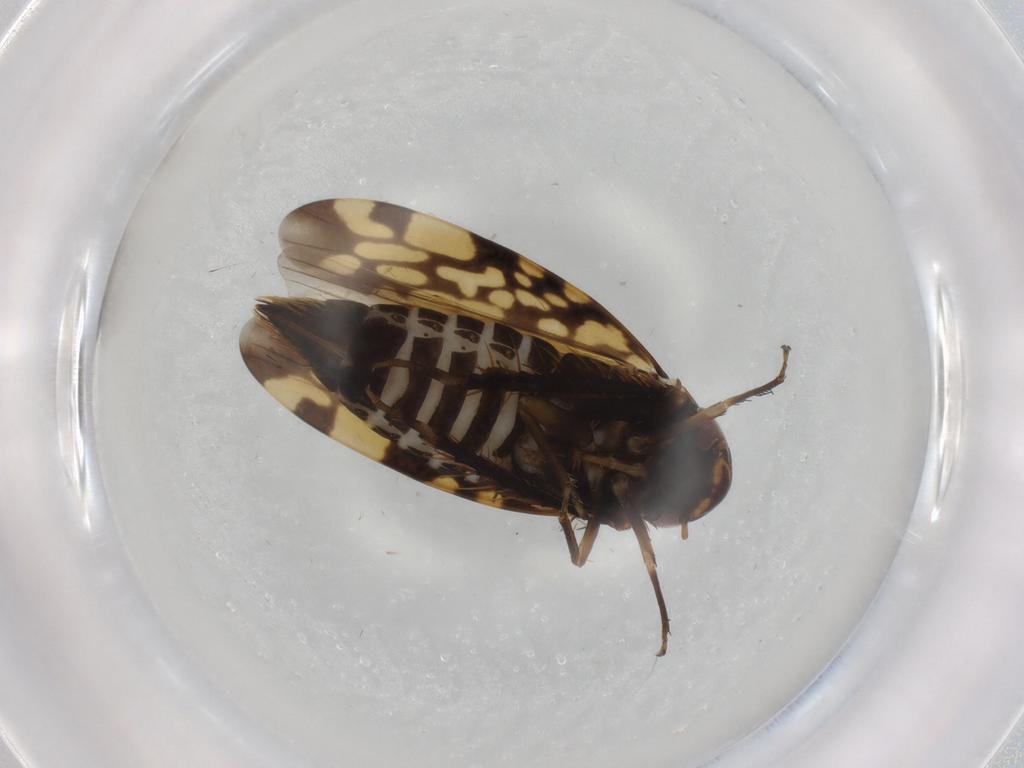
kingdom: Animalia
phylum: Arthropoda
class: Insecta
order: Hemiptera
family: Cicadellidae
